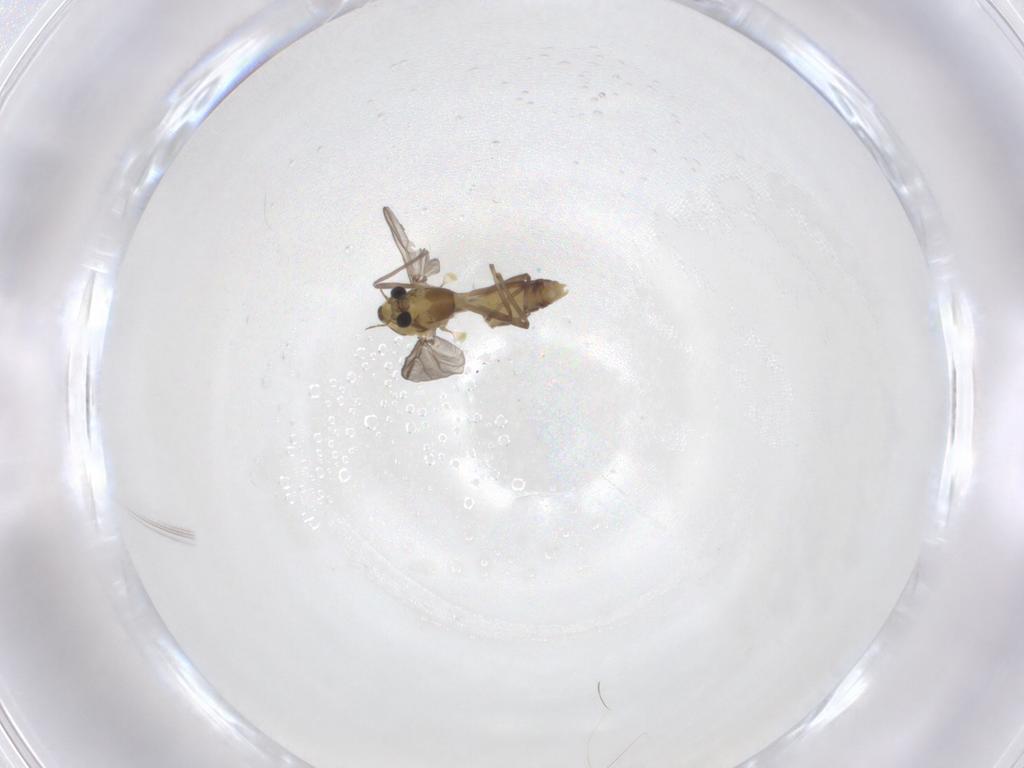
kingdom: Animalia
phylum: Arthropoda
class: Insecta
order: Diptera
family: Chironomidae
